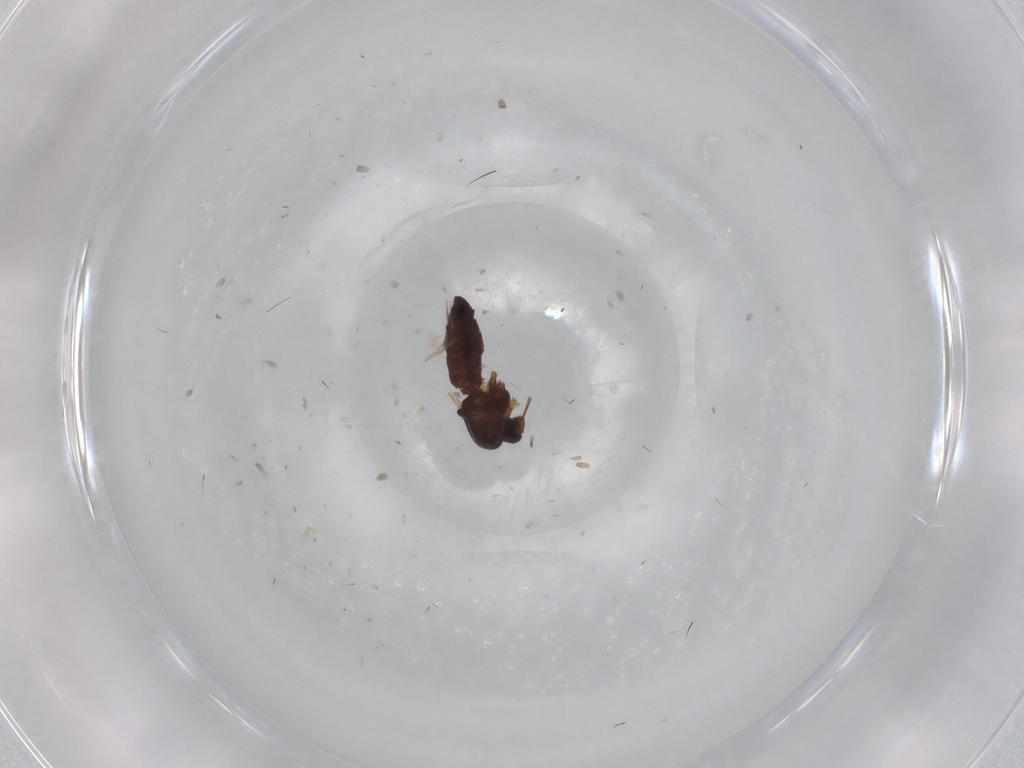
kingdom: Animalia
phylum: Arthropoda
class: Insecta
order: Diptera
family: Ceratopogonidae
